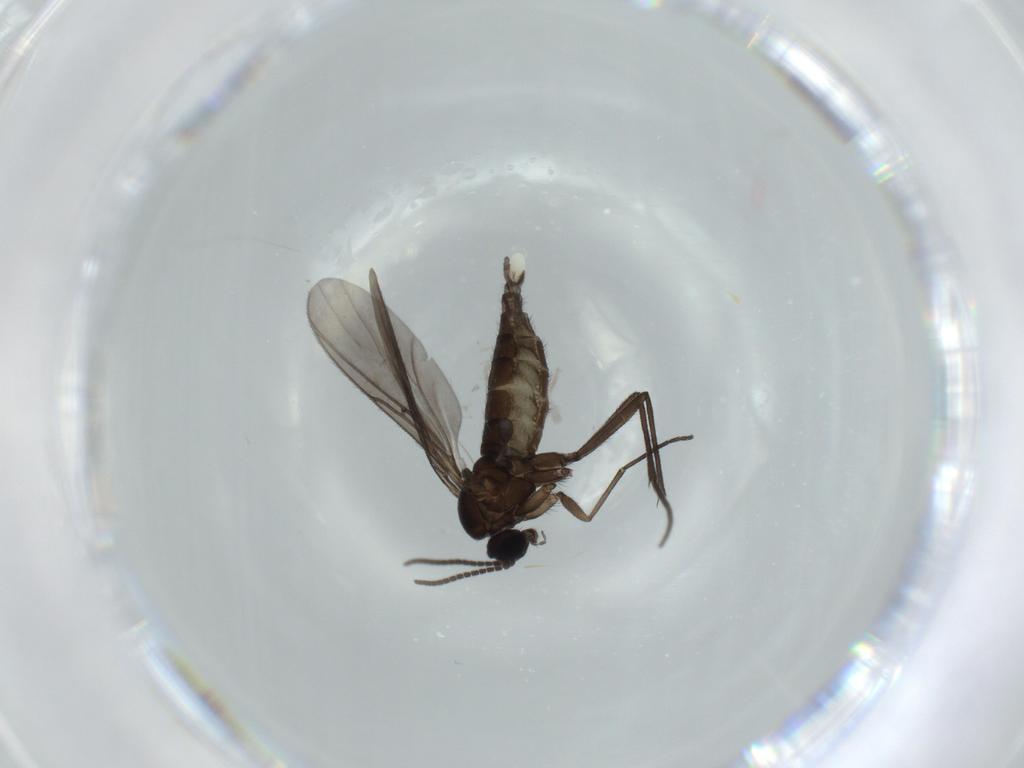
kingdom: Animalia
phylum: Arthropoda
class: Insecta
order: Diptera
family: Sciaridae
